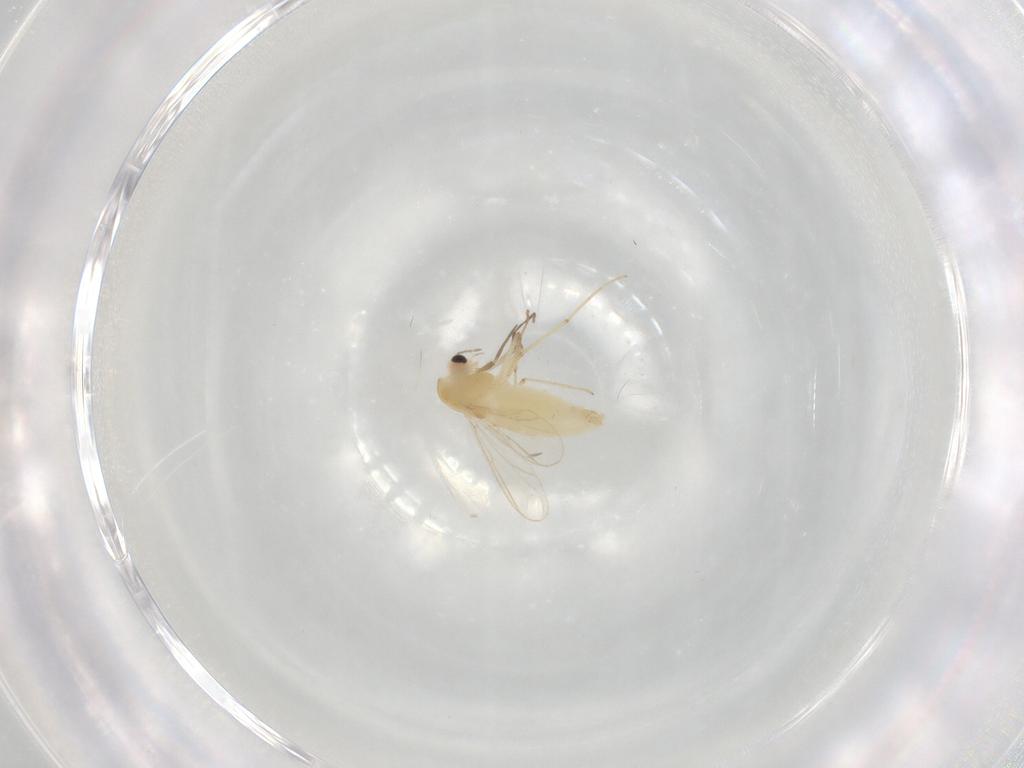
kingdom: Animalia
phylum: Arthropoda
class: Insecta
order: Diptera
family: Chironomidae
